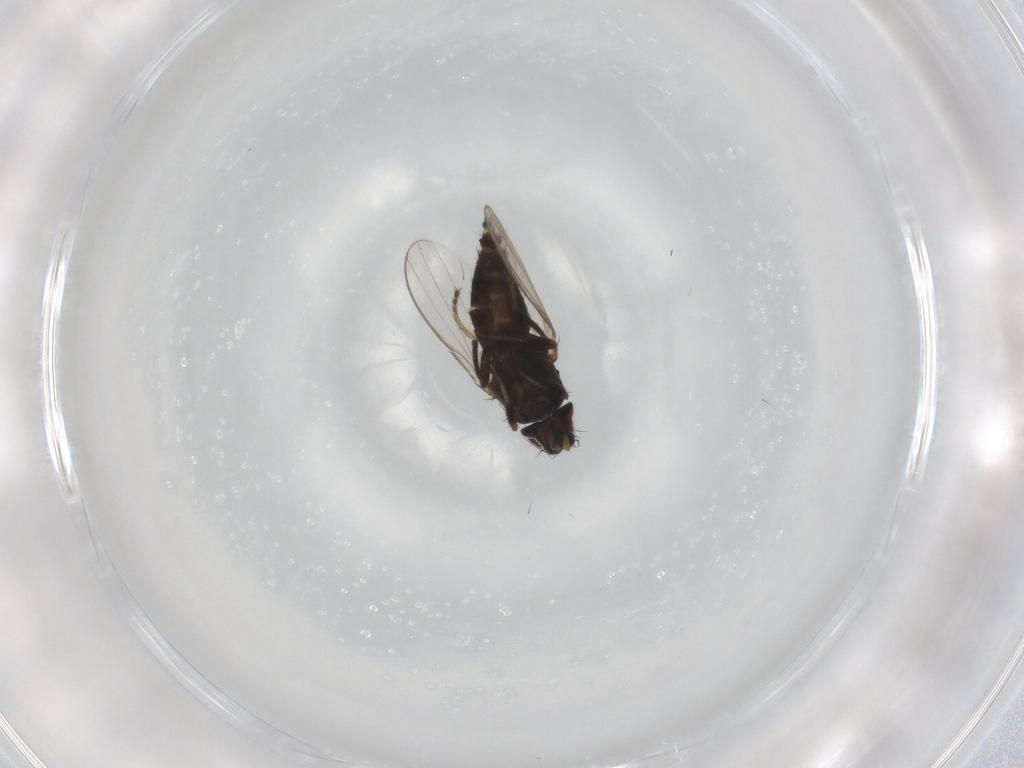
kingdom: Animalia
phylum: Arthropoda
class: Insecta
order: Diptera
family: Milichiidae
